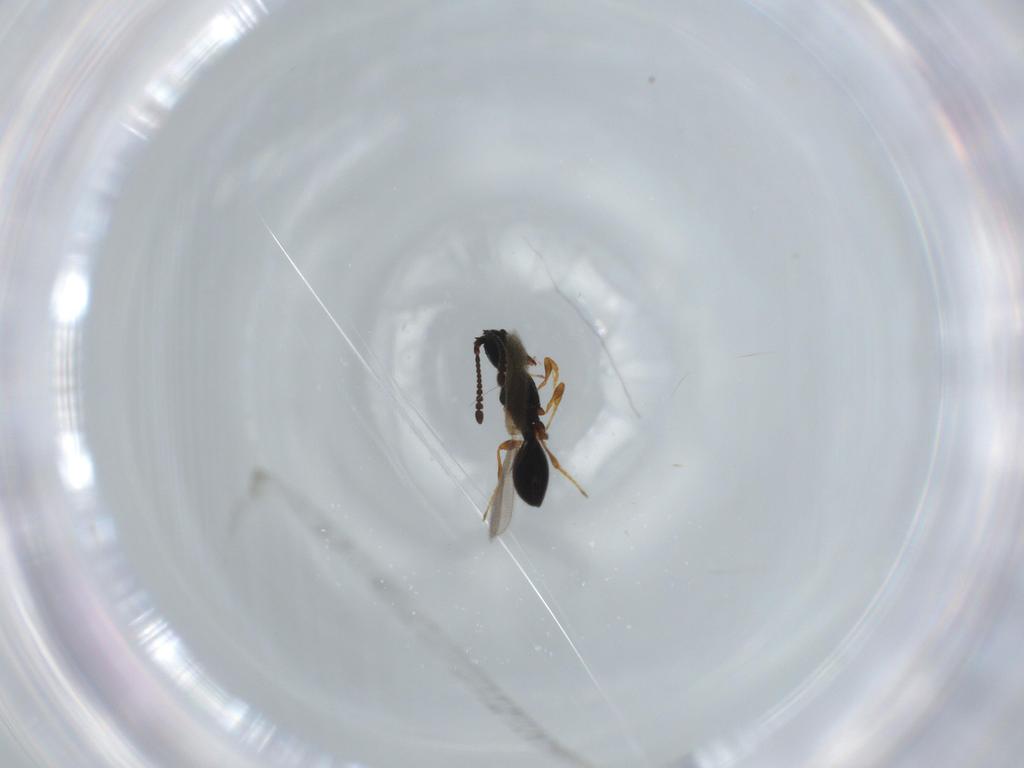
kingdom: Animalia
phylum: Arthropoda
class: Insecta
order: Hymenoptera
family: Diapriidae
